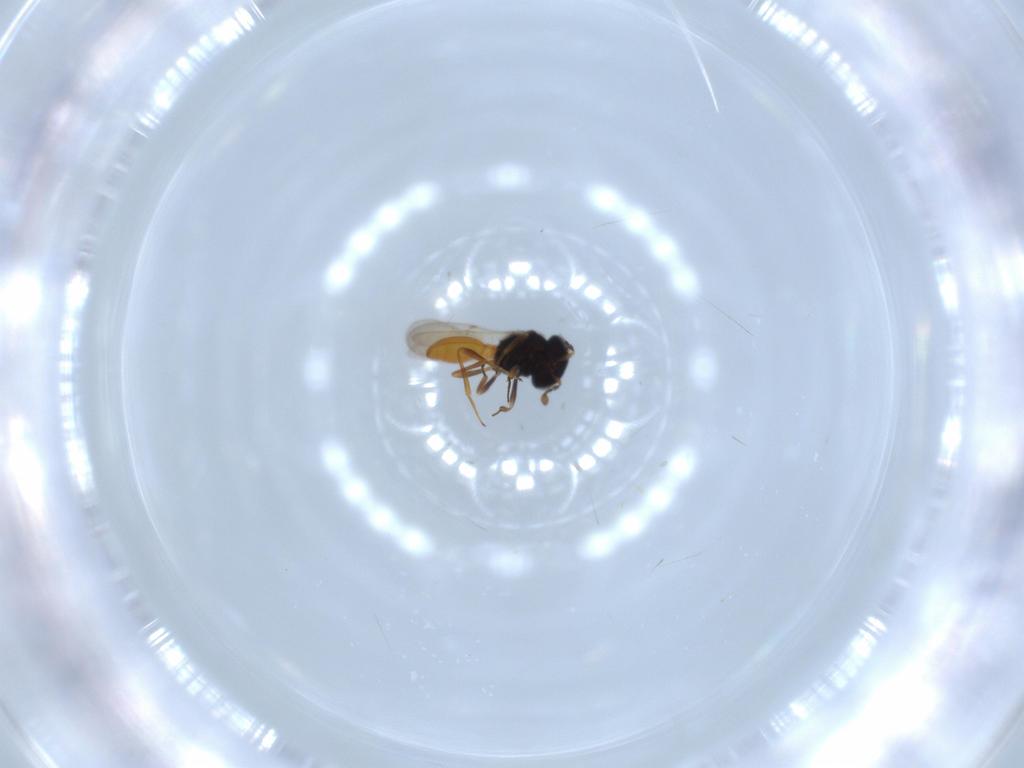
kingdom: Animalia
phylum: Arthropoda
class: Insecta
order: Hymenoptera
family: Scelionidae
